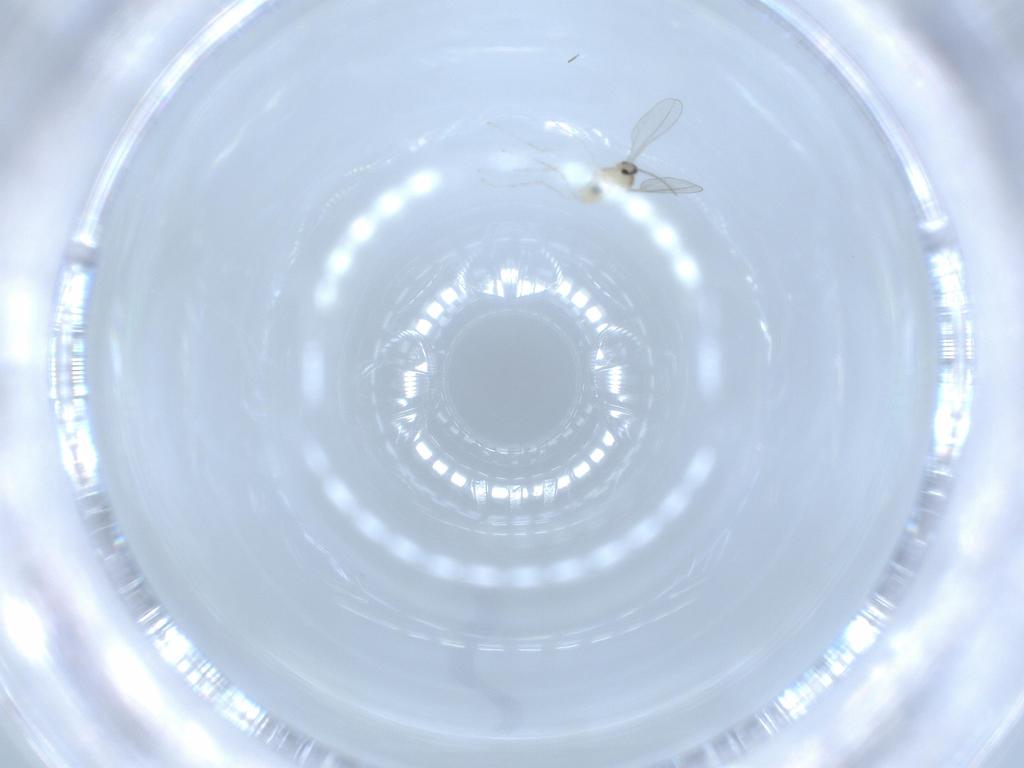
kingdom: Animalia
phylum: Arthropoda
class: Insecta
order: Diptera
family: Cecidomyiidae
